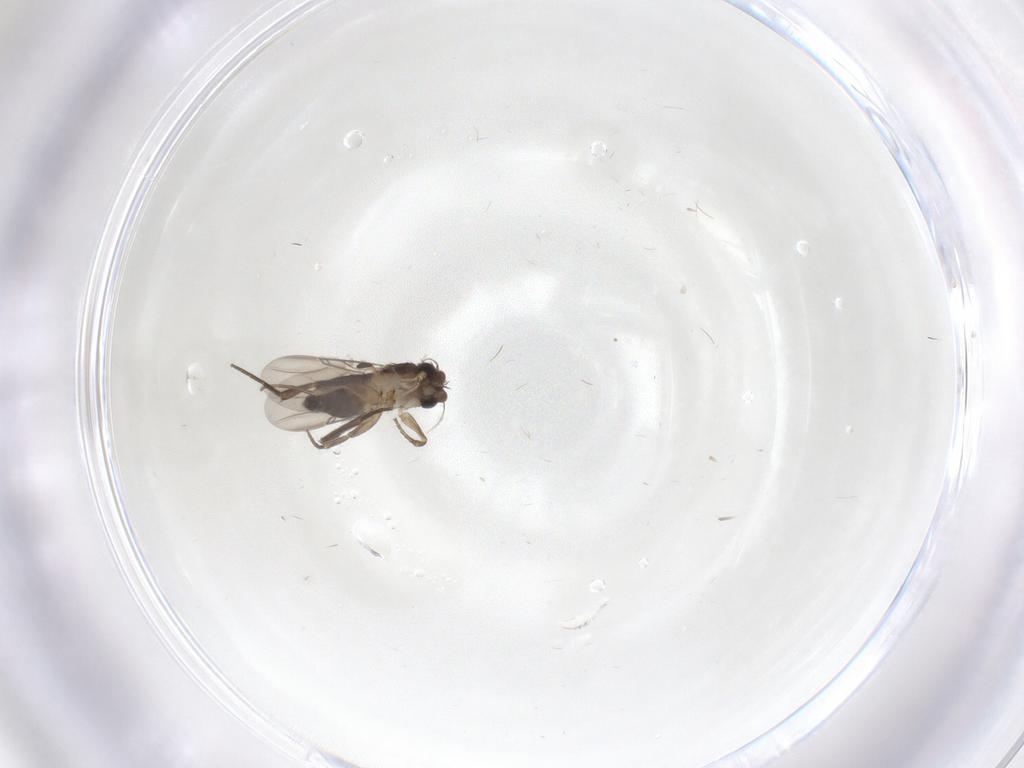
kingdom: Animalia
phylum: Arthropoda
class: Insecta
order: Diptera
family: Phoridae
